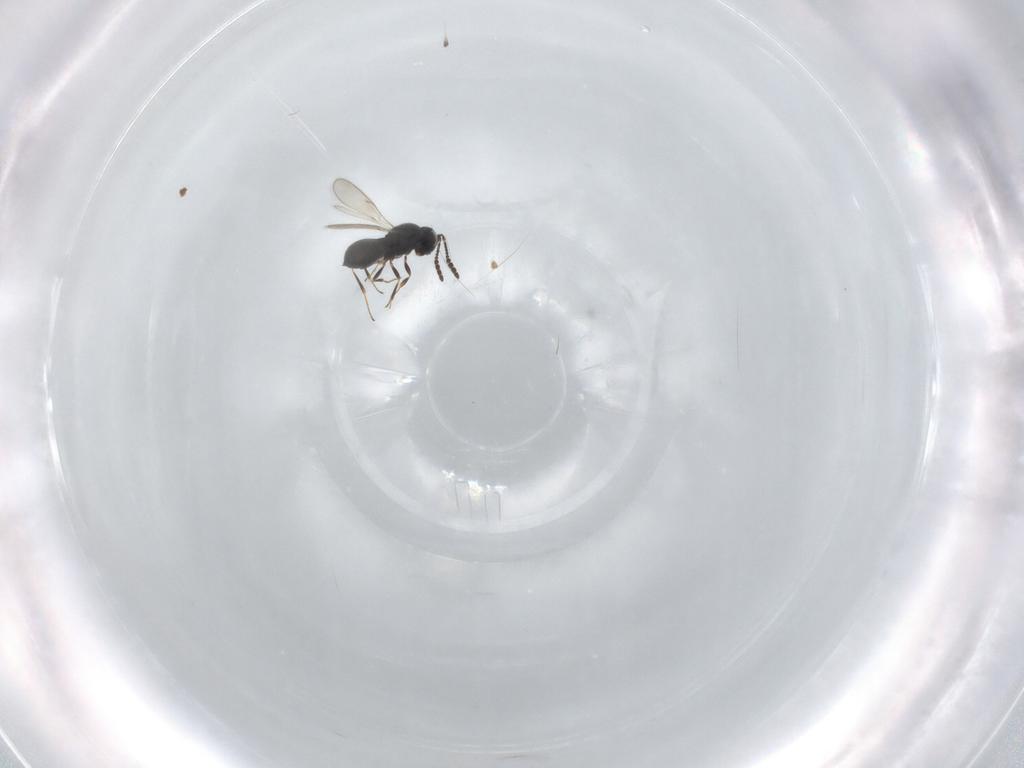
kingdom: Animalia
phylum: Arthropoda
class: Insecta
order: Hymenoptera
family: Scelionidae
